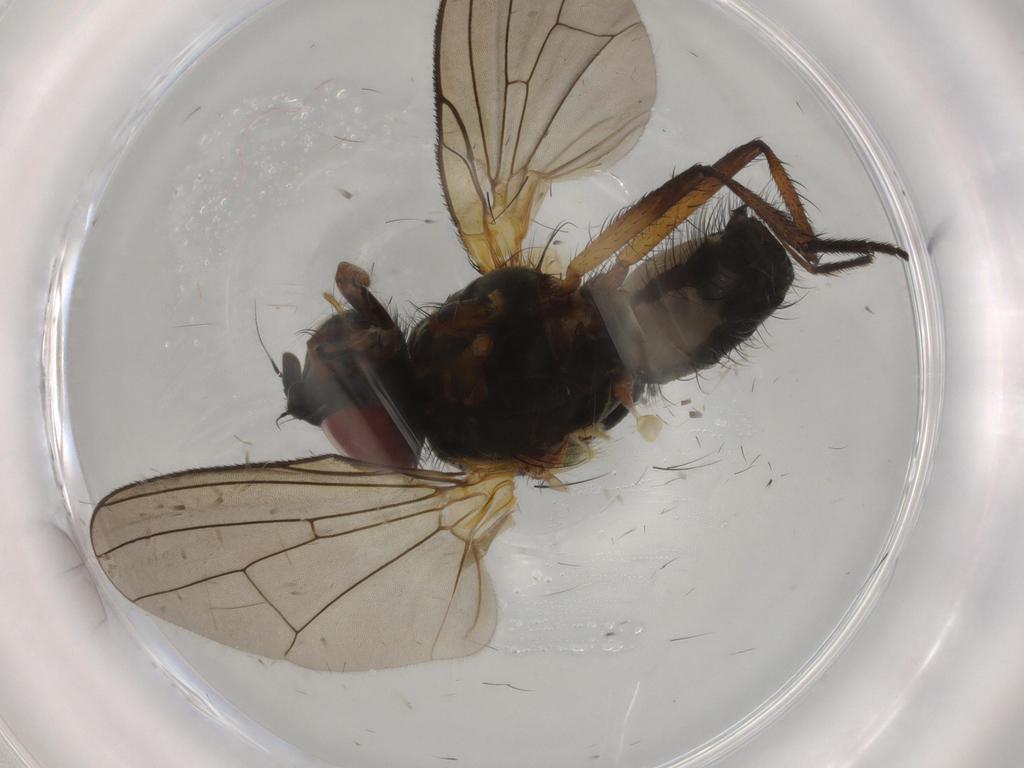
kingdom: Animalia
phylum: Arthropoda
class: Insecta
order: Diptera
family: Anthomyiidae
